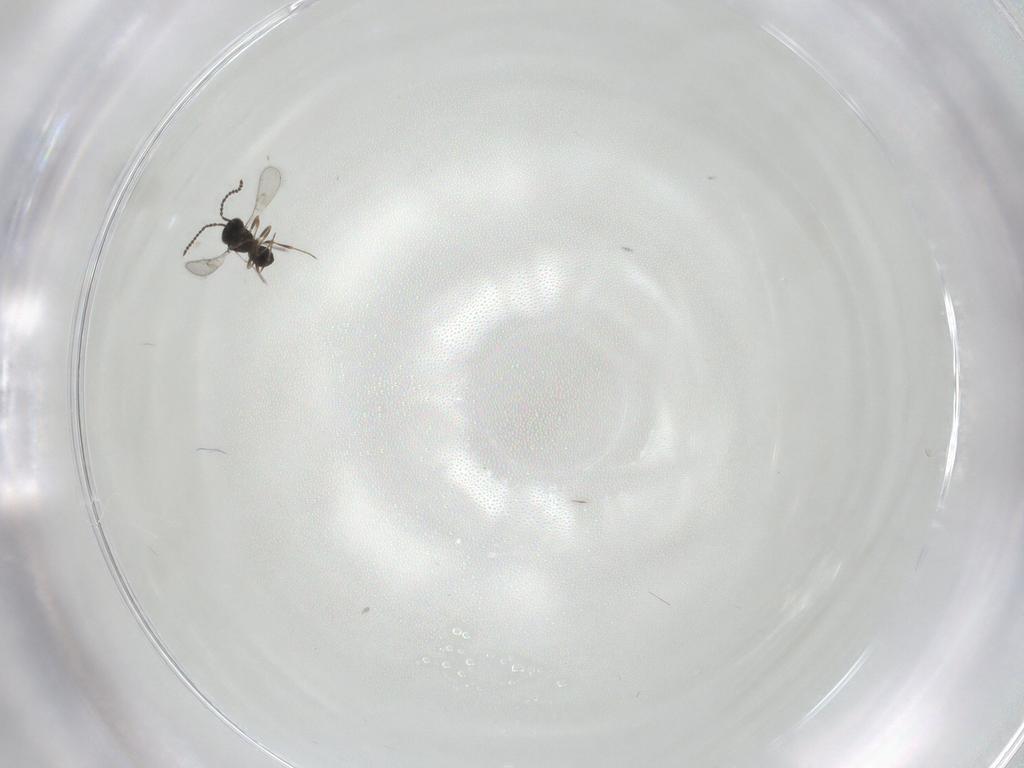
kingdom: Animalia
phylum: Arthropoda
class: Insecta
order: Hymenoptera
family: Scelionidae
